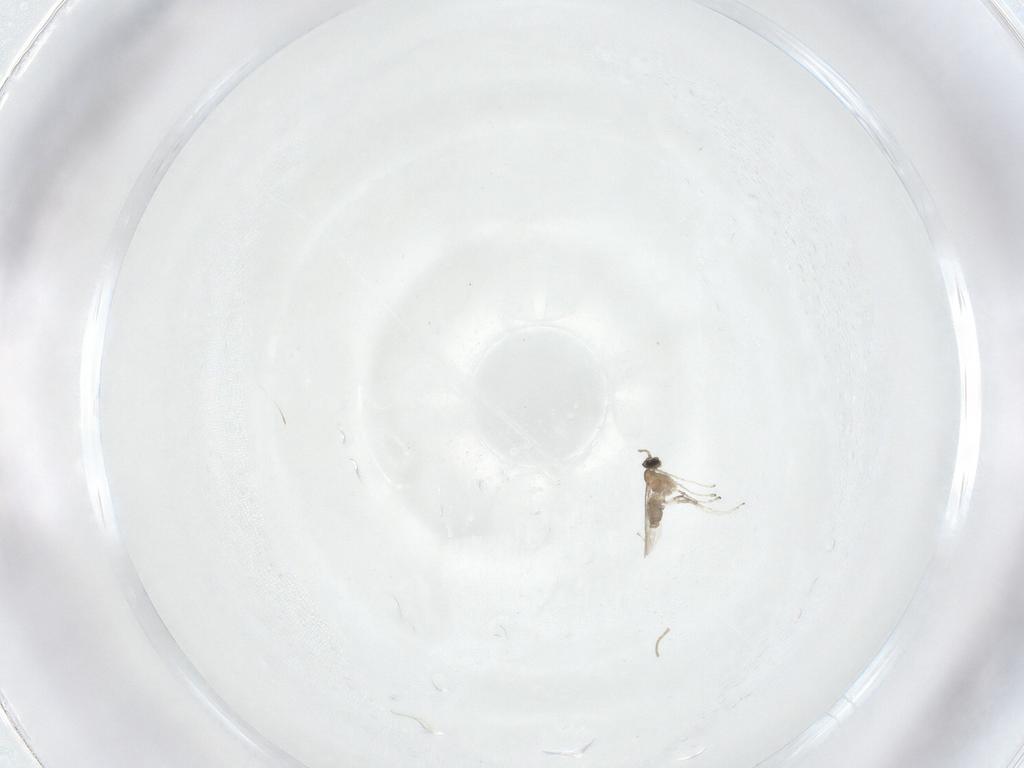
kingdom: Animalia
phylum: Arthropoda
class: Insecta
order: Diptera
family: Cecidomyiidae
